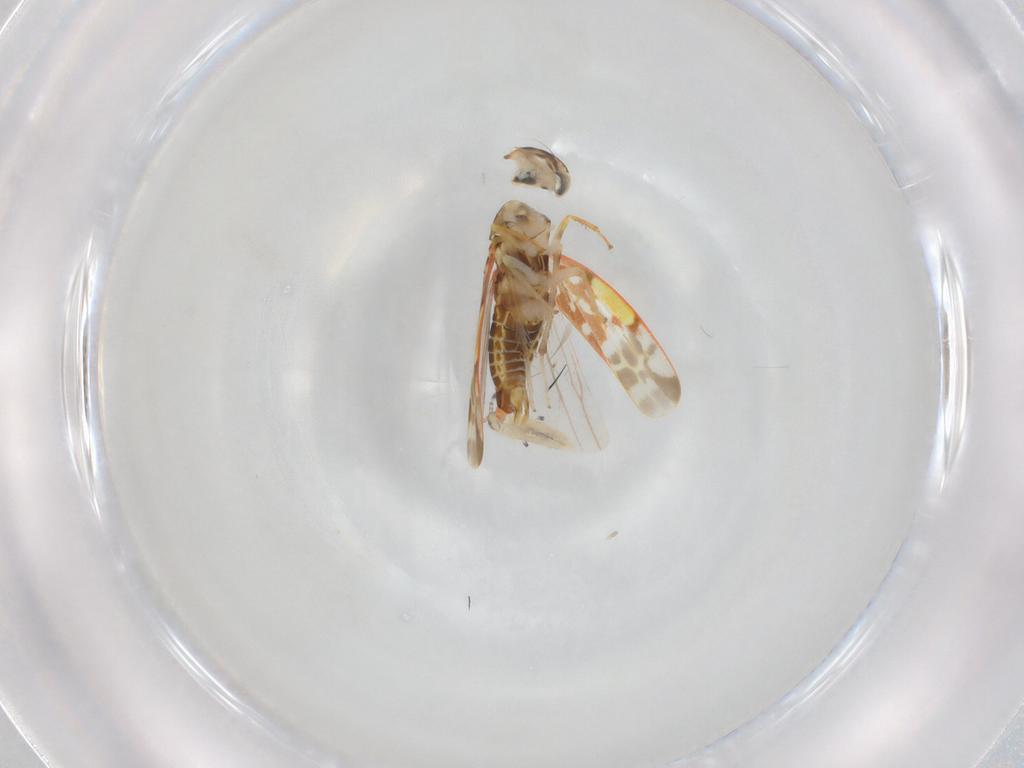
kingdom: Animalia
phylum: Arthropoda
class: Insecta
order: Hemiptera
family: Cicadellidae
